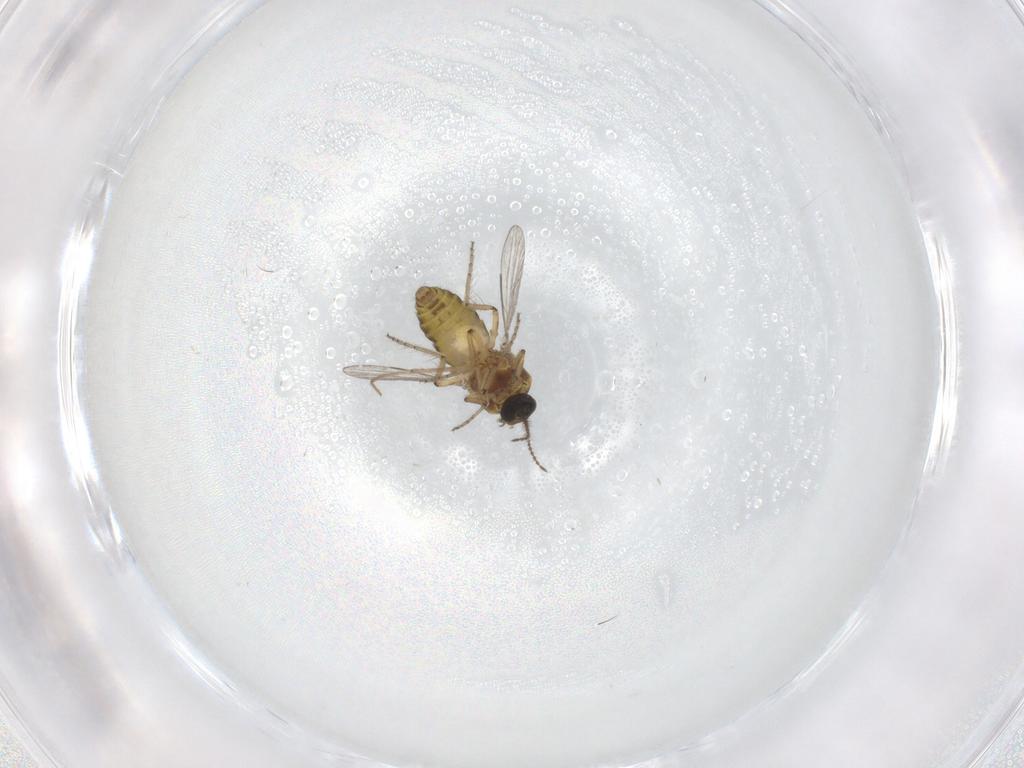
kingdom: Animalia
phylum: Arthropoda
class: Insecta
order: Diptera
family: Ceratopogonidae
